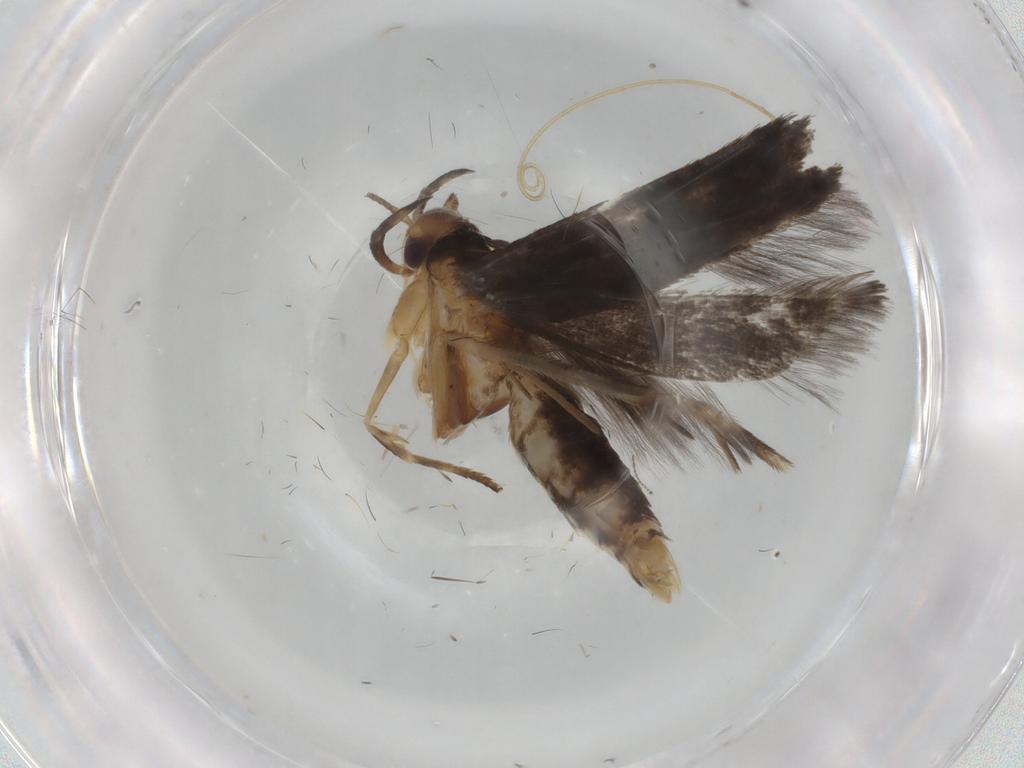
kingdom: Animalia
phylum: Arthropoda
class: Insecta
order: Lepidoptera
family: Gelechiidae
